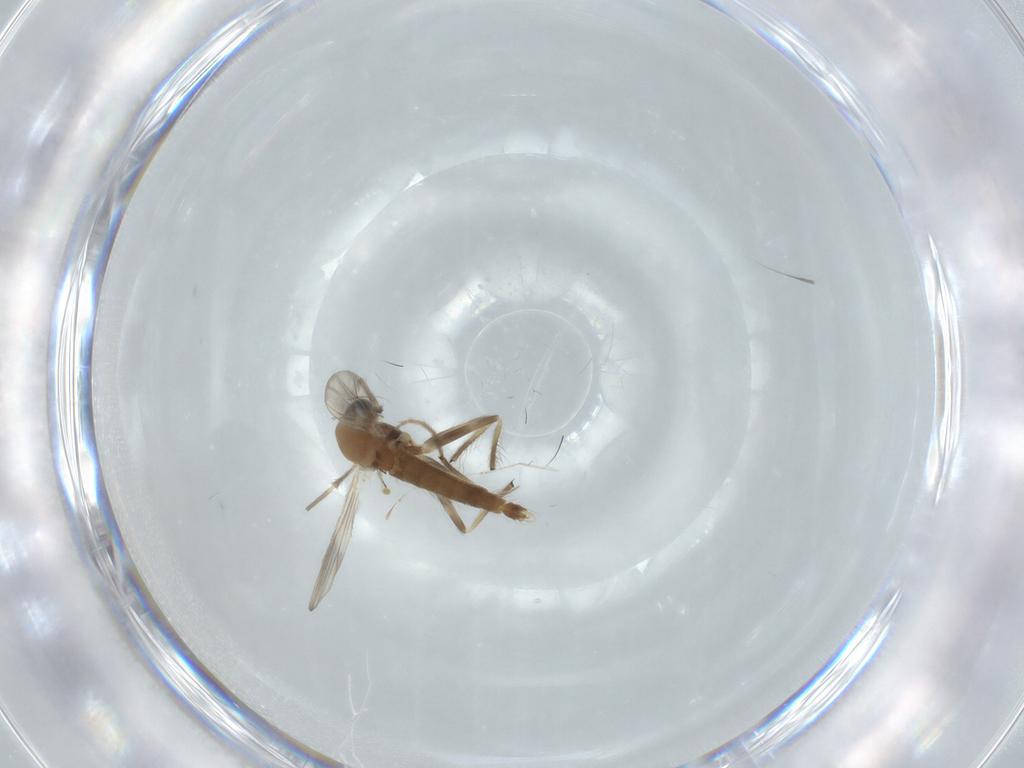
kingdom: Animalia
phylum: Arthropoda
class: Insecta
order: Diptera
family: Chironomidae
